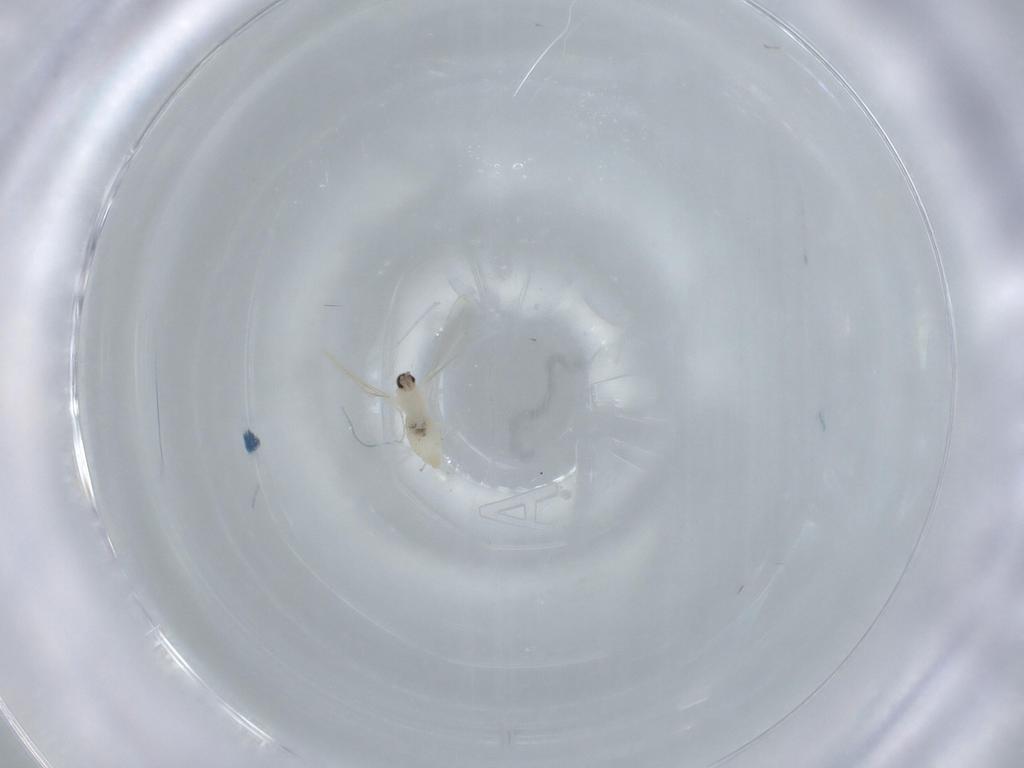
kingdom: Animalia
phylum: Arthropoda
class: Insecta
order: Diptera
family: Cecidomyiidae
